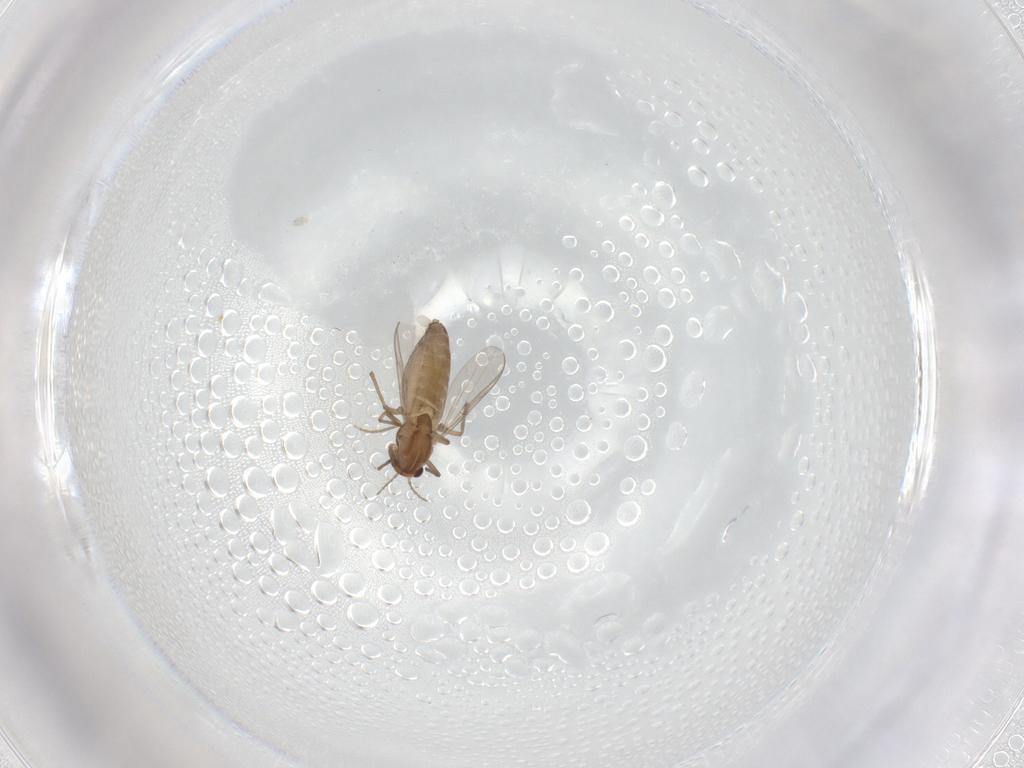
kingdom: Animalia
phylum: Arthropoda
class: Insecta
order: Diptera
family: Chironomidae
